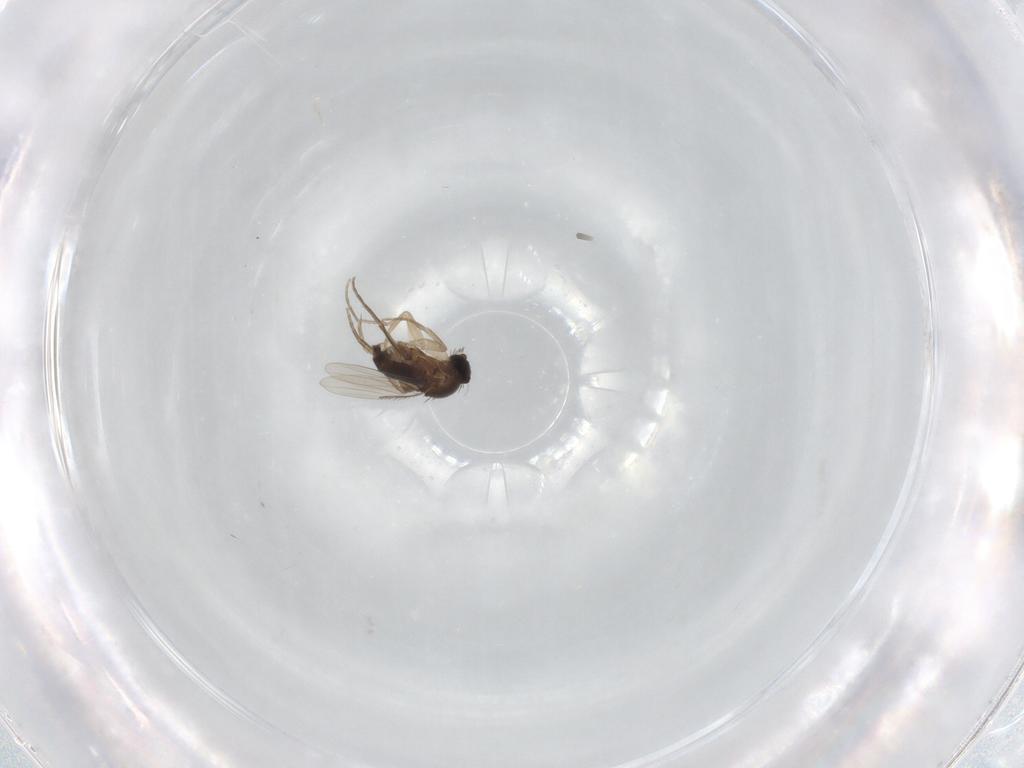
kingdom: Animalia
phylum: Arthropoda
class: Insecta
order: Diptera
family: Phoridae
